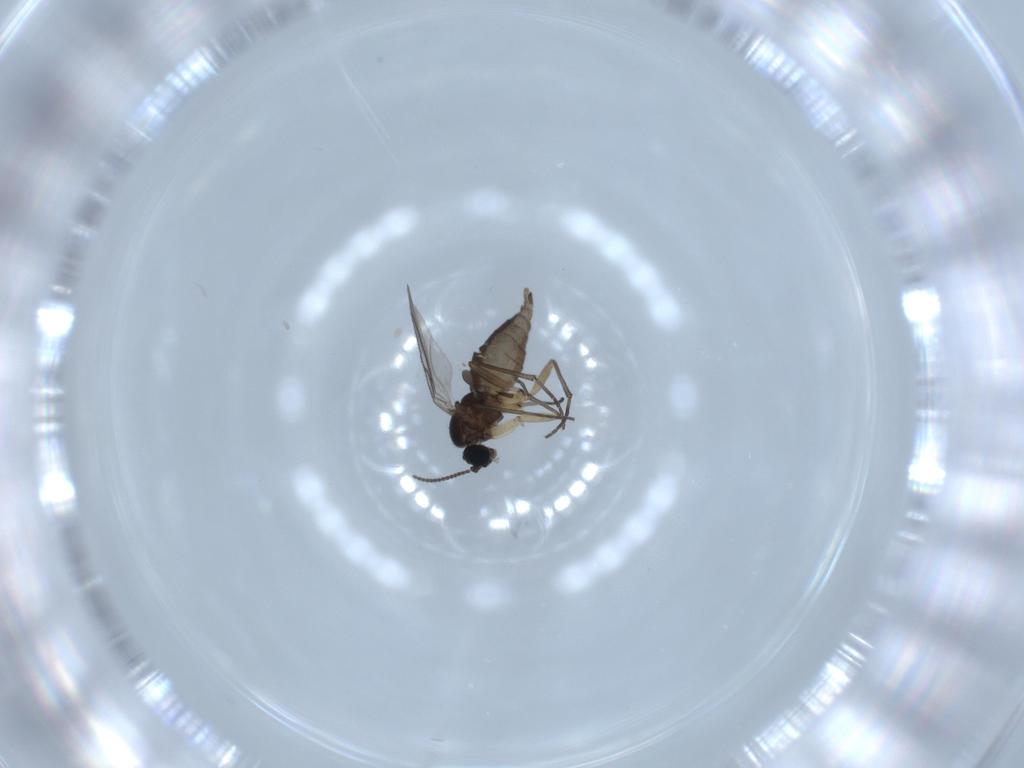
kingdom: Animalia
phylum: Arthropoda
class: Insecta
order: Diptera
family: Sciaridae
